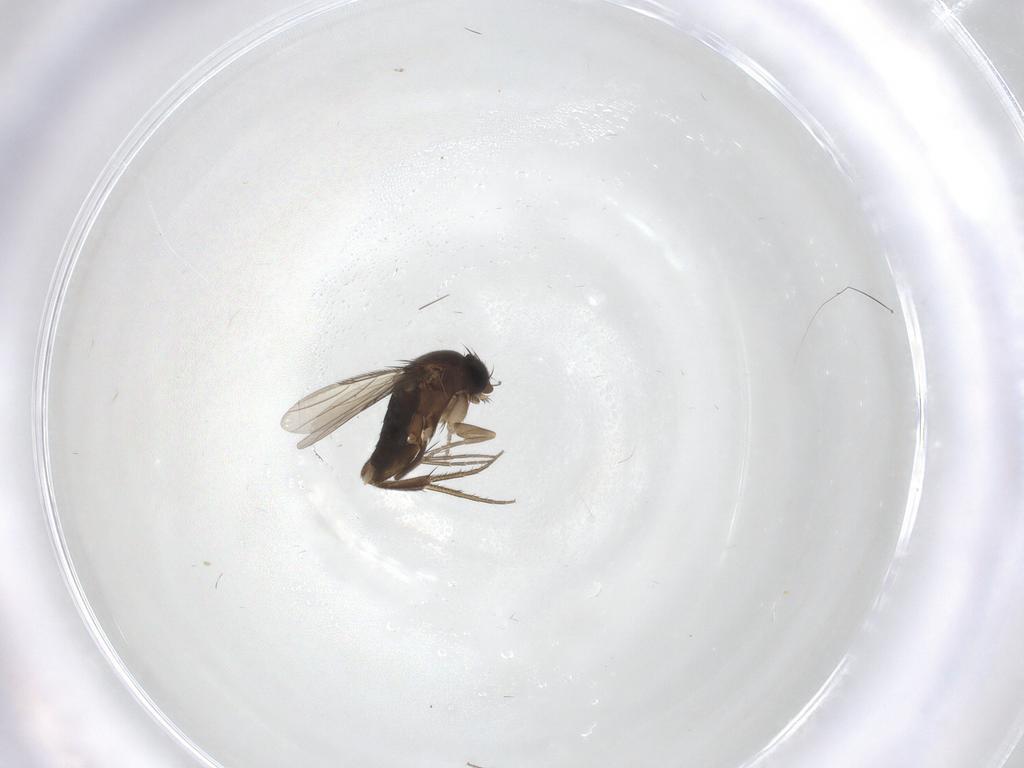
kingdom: Animalia
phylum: Arthropoda
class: Insecta
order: Diptera
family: Phoridae
